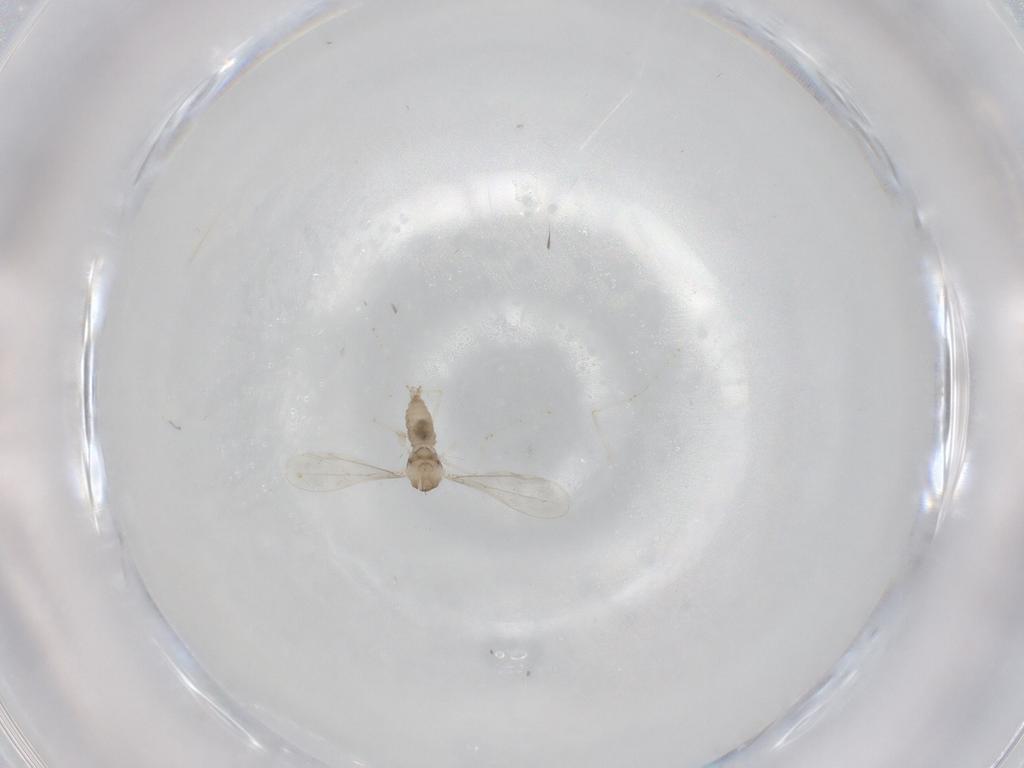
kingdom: Animalia
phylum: Arthropoda
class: Insecta
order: Diptera
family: Cecidomyiidae
